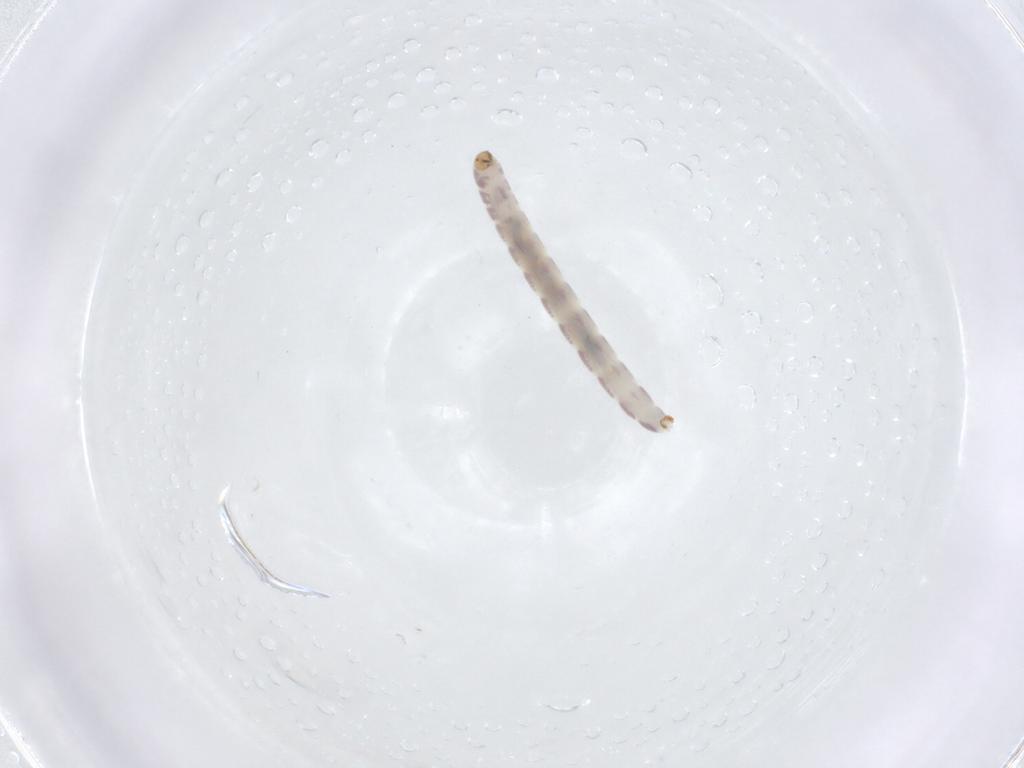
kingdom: Animalia
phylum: Arthropoda
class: Insecta
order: Diptera
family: Chironomidae
